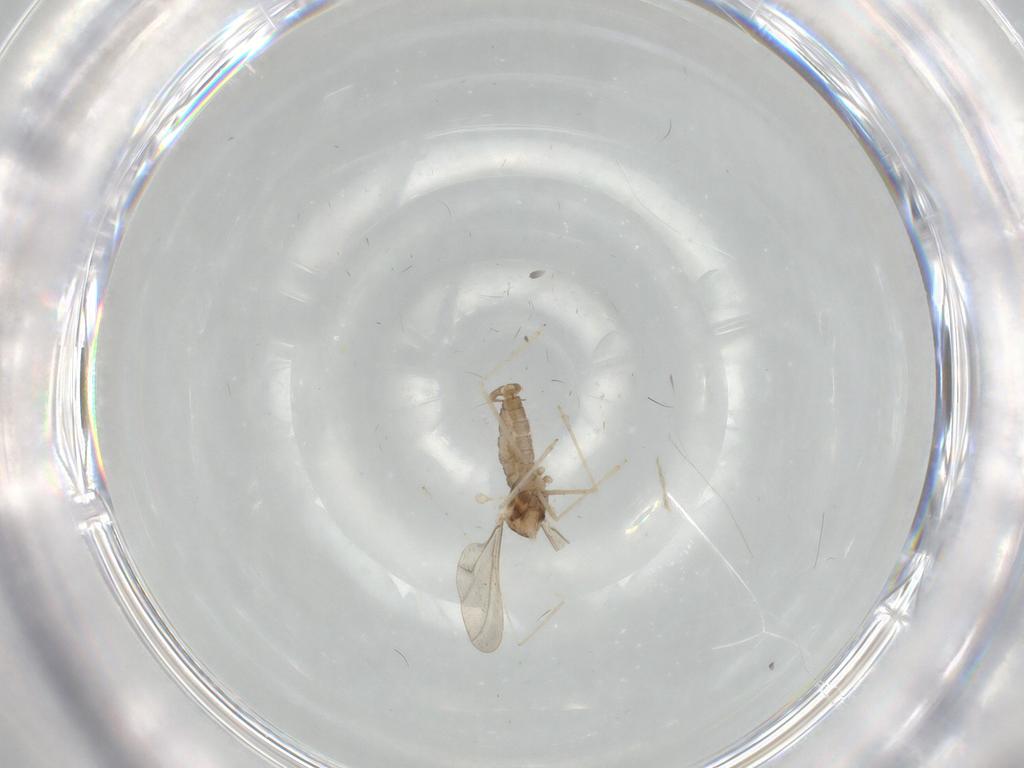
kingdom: Animalia
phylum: Arthropoda
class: Insecta
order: Diptera
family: Cecidomyiidae
